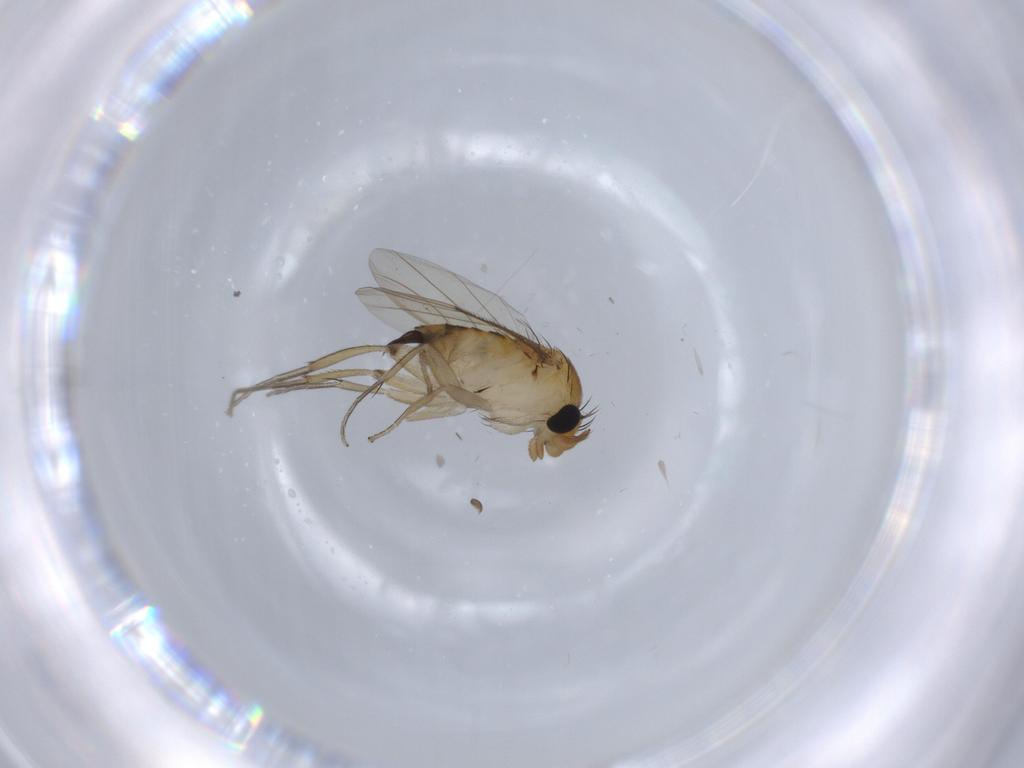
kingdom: Animalia
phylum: Arthropoda
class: Insecta
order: Diptera
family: Phoridae
